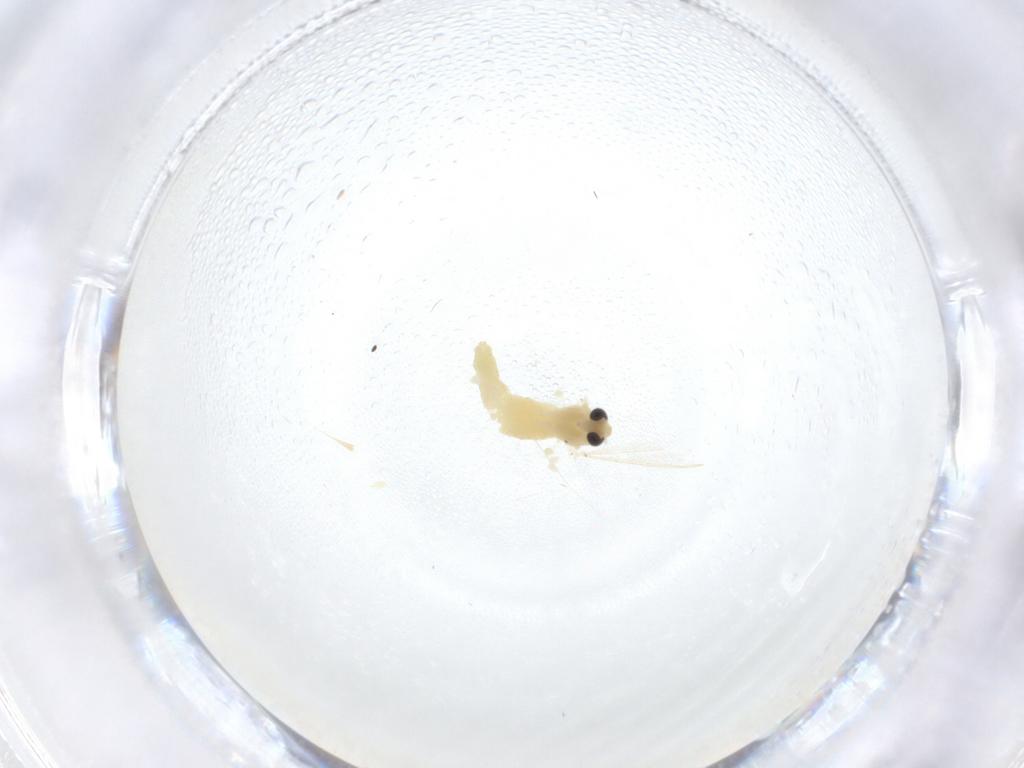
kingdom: Animalia
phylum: Arthropoda
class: Insecta
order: Diptera
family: Chironomidae
